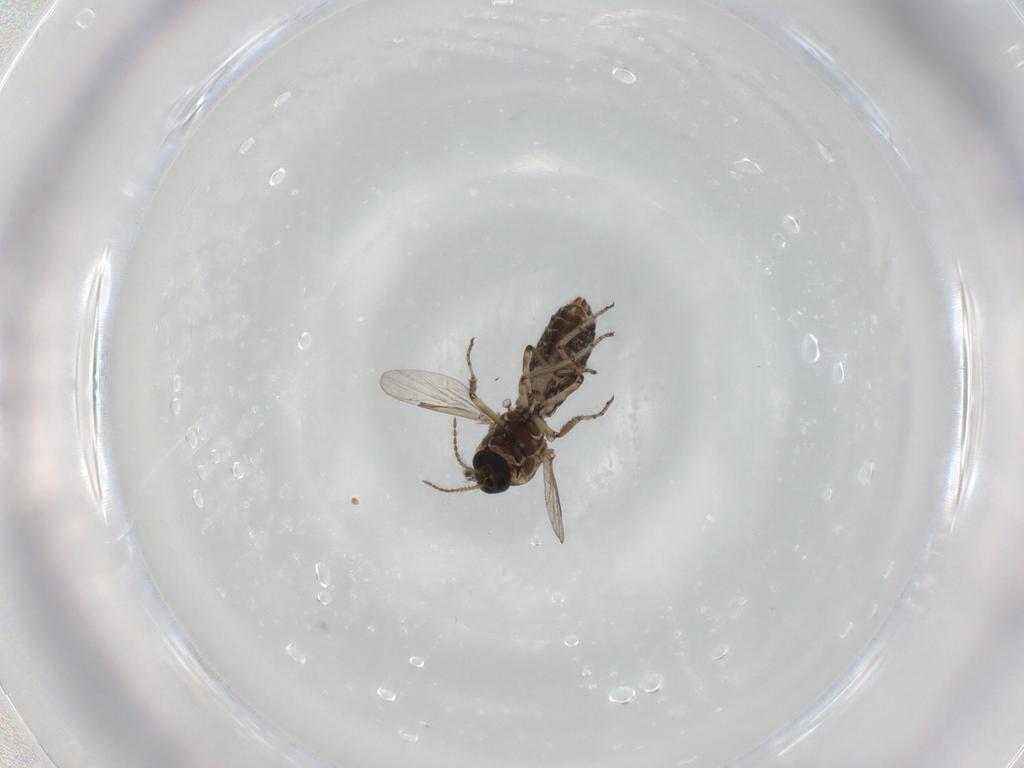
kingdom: Animalia
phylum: Arthropoda
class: Insecta
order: Diptera
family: Ceratopogonidae
